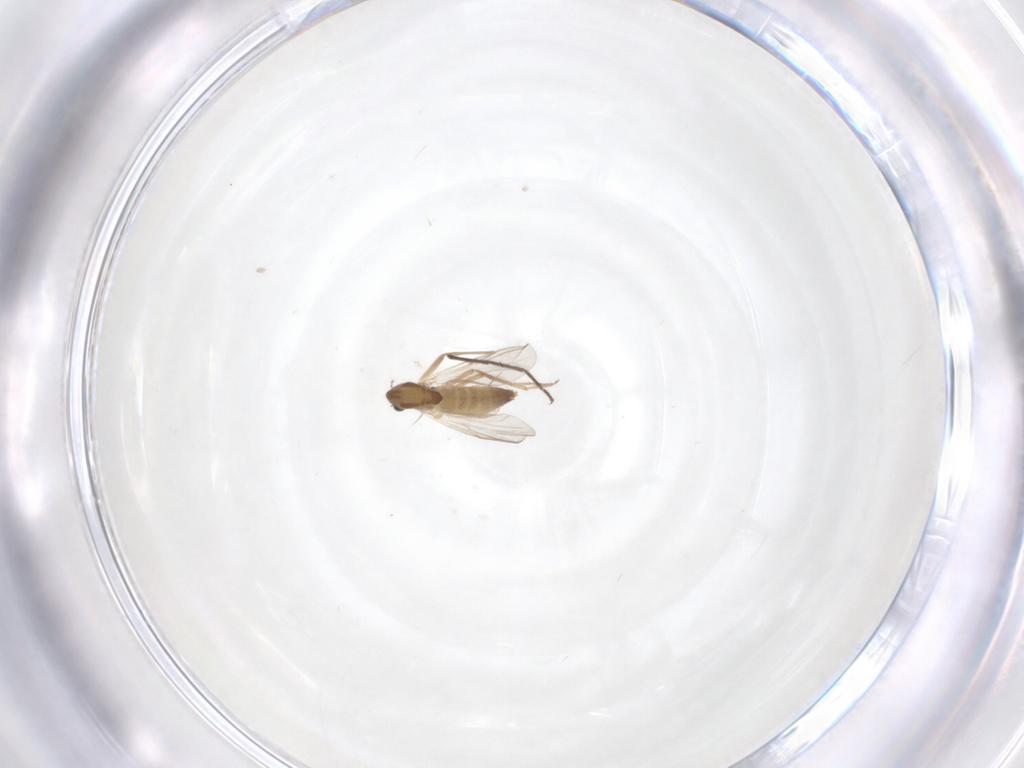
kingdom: Animalia
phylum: Arthropoda
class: Insecta
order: Diptera
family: Chironomidae
